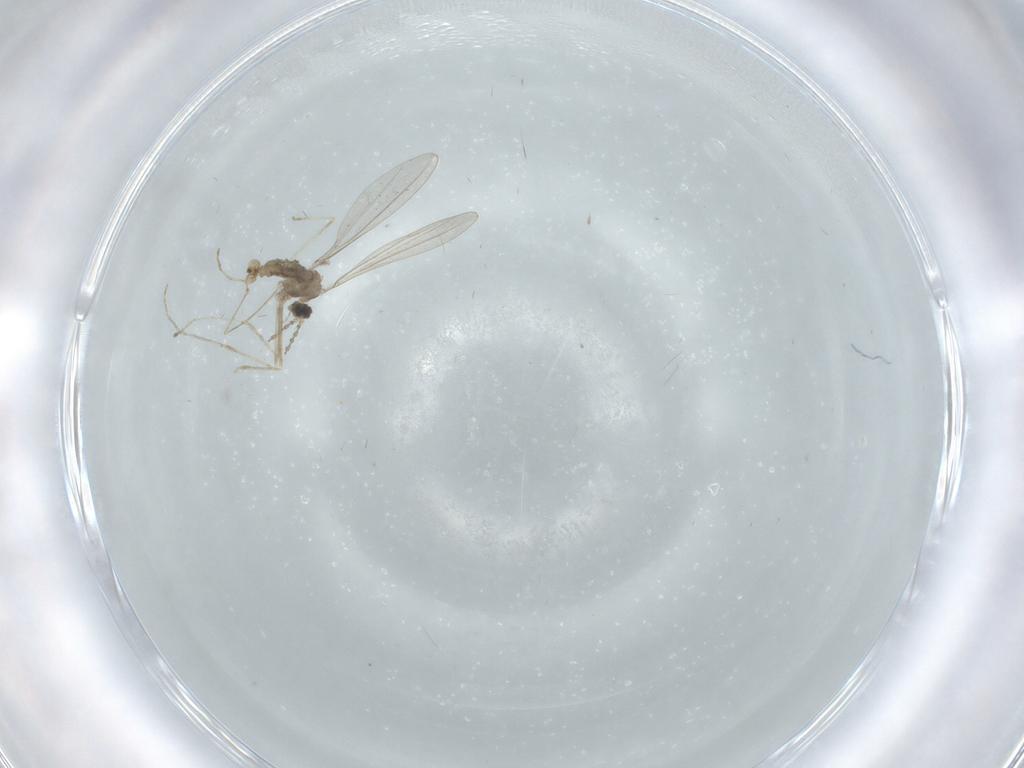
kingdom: Animalia
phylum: Arthropoda
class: Insecta
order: Diptera
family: Cecidomyiidae
